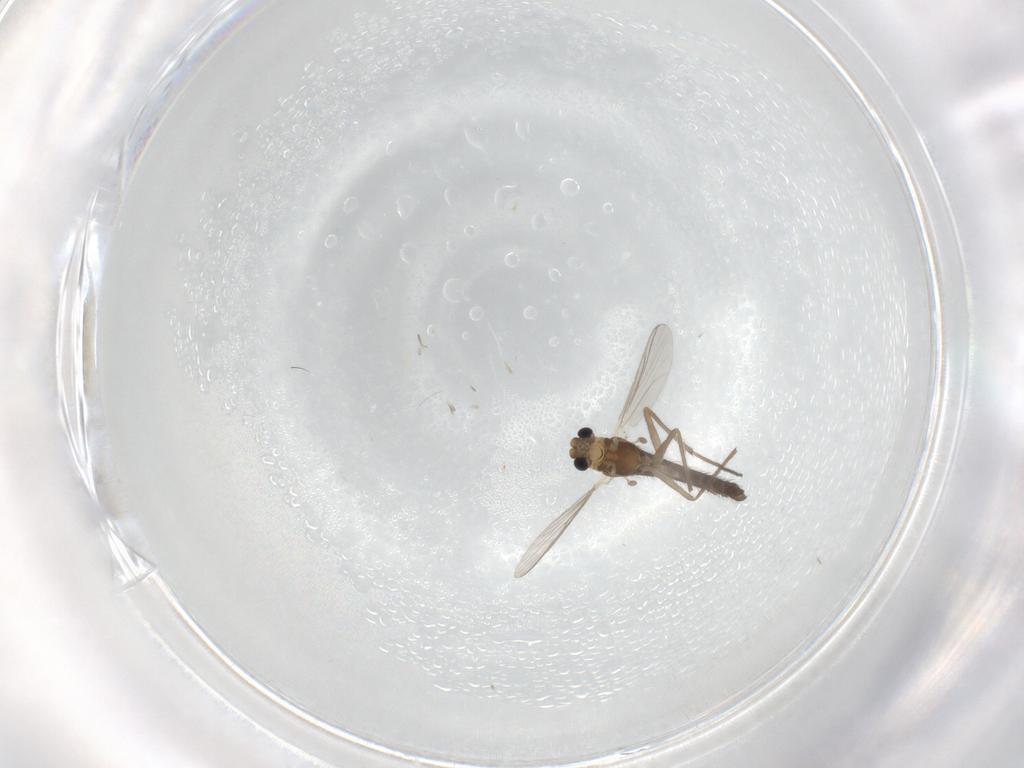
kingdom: Animalia
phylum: Arthropoda
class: Insecta
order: Diptera
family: Chironomidae
